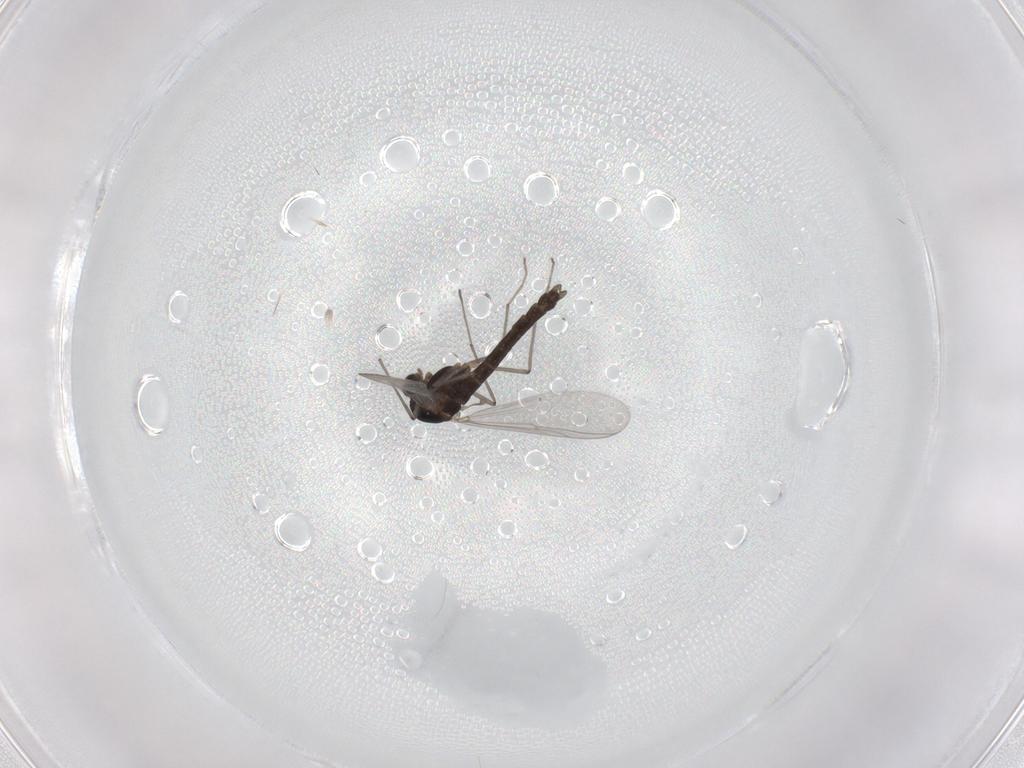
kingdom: Animalia
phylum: Arthropoda
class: Insecta
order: Diptera
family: Chironomidae
